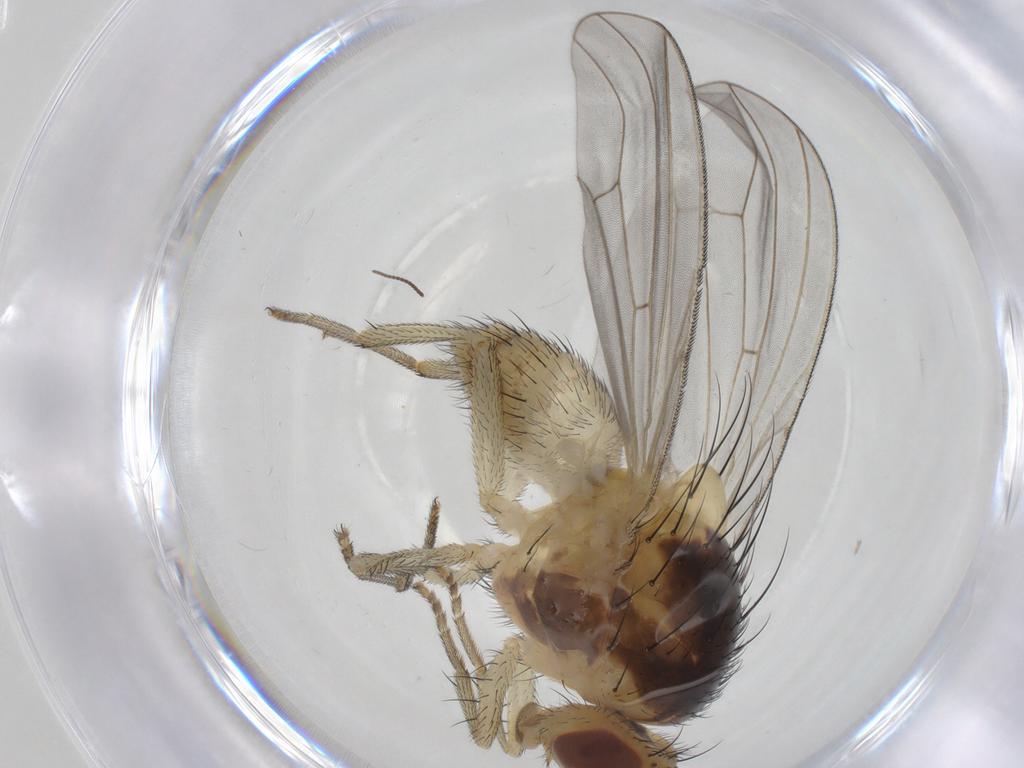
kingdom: Animalia
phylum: Arthropoda
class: Insecta
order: Diptera
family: Sciaridae
